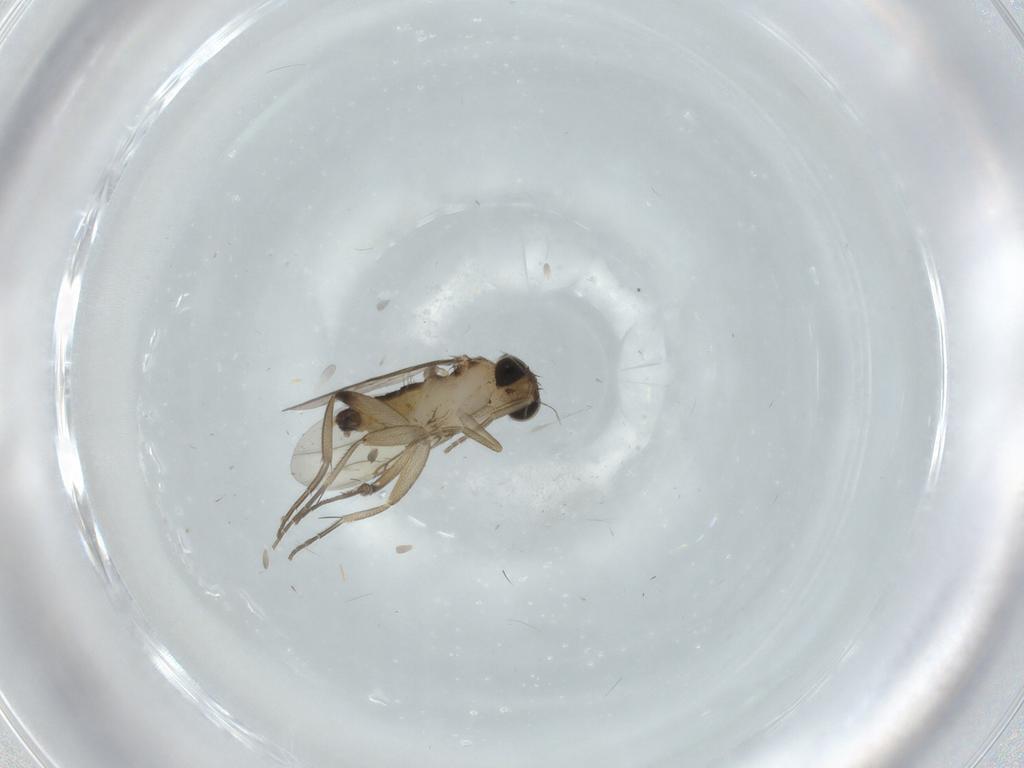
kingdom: Animalia
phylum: Arthropoda
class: Insecta
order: Diptera
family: Phoridae
